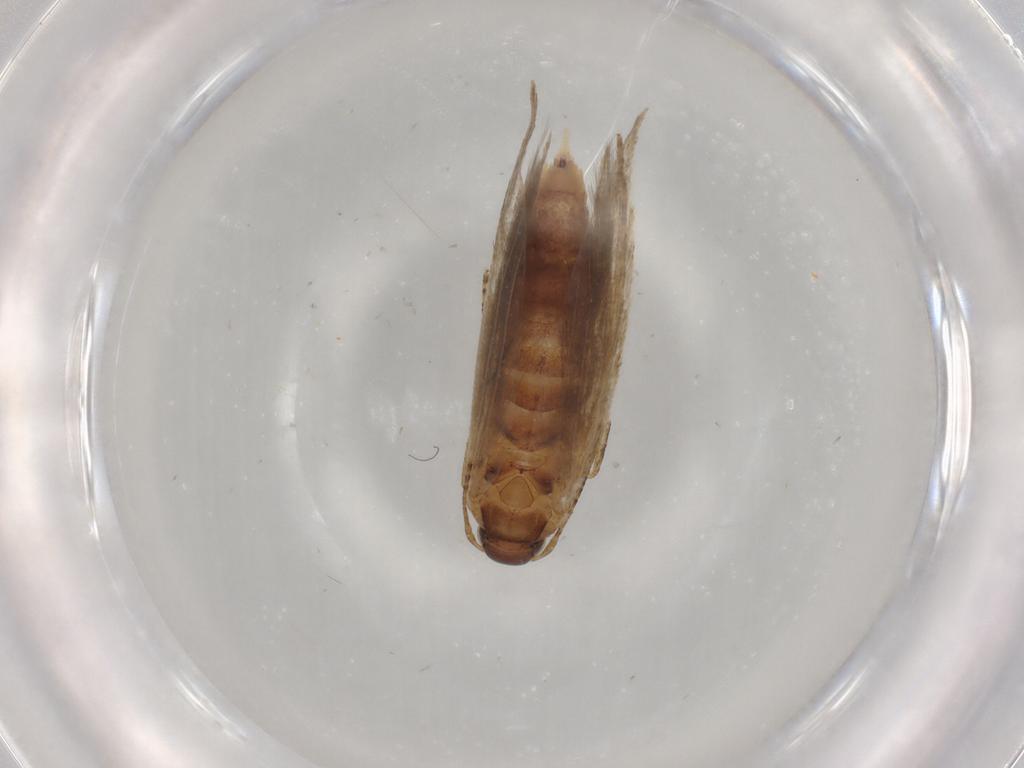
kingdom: Animalia
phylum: Arthropoda
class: Insecta
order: Lepidoptera
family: Gelechiidae
